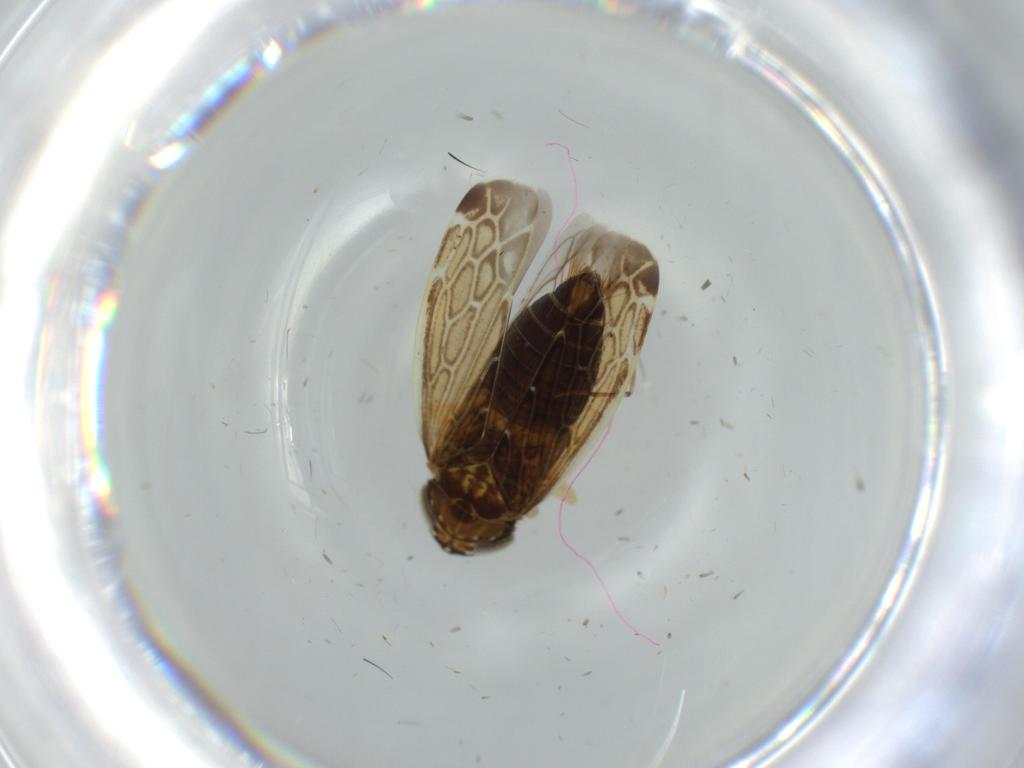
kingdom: Animalia
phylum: Arthropoda
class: Insecta
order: Hemiptera
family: Cicadellidae
